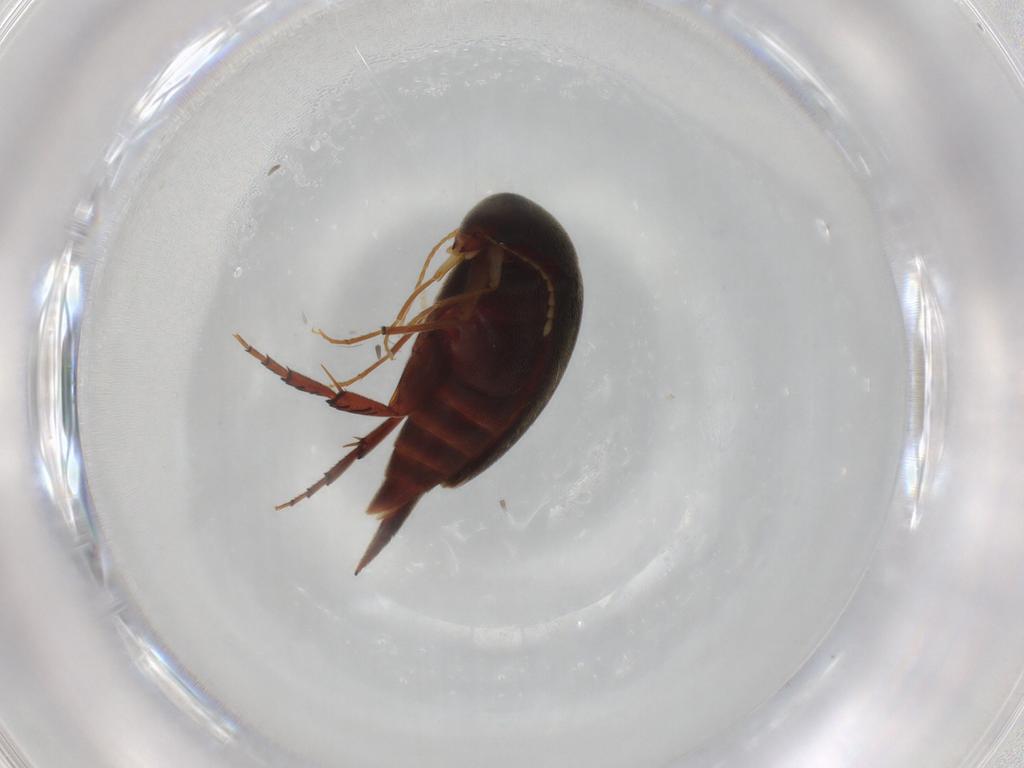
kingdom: Animalia
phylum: Arthropoda
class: Insecta
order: Coleoptera
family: Mordellidae
